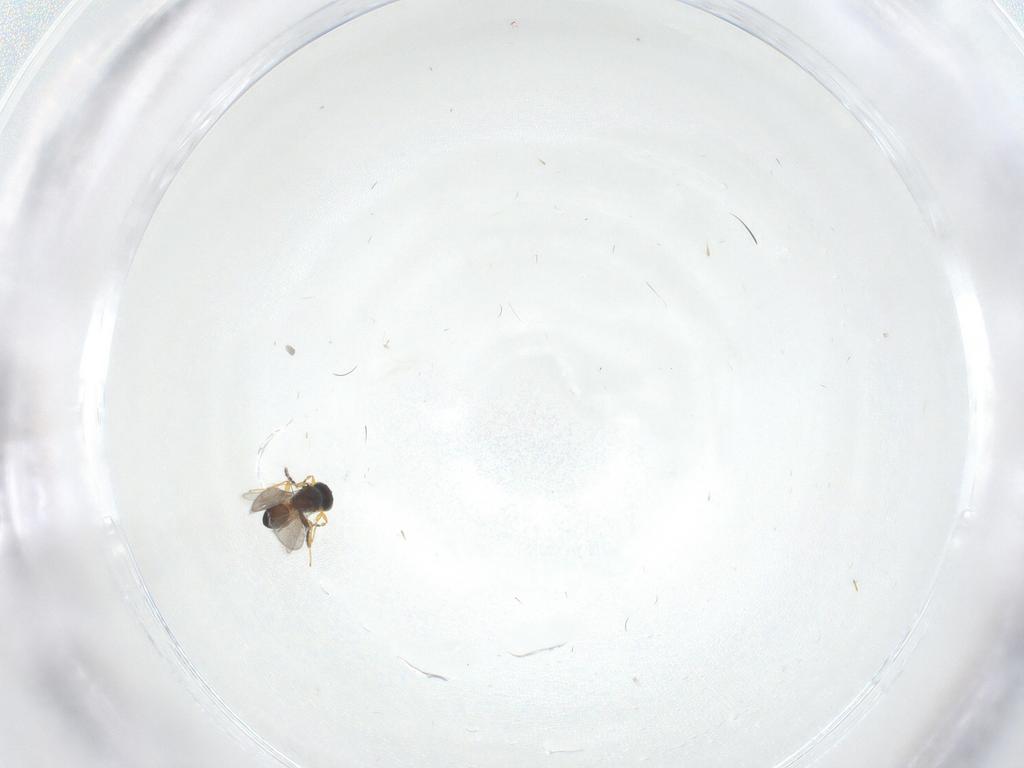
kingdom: Animalia
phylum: Arthropoda
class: Insecta
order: Hymenoptera
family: Platygastridae
